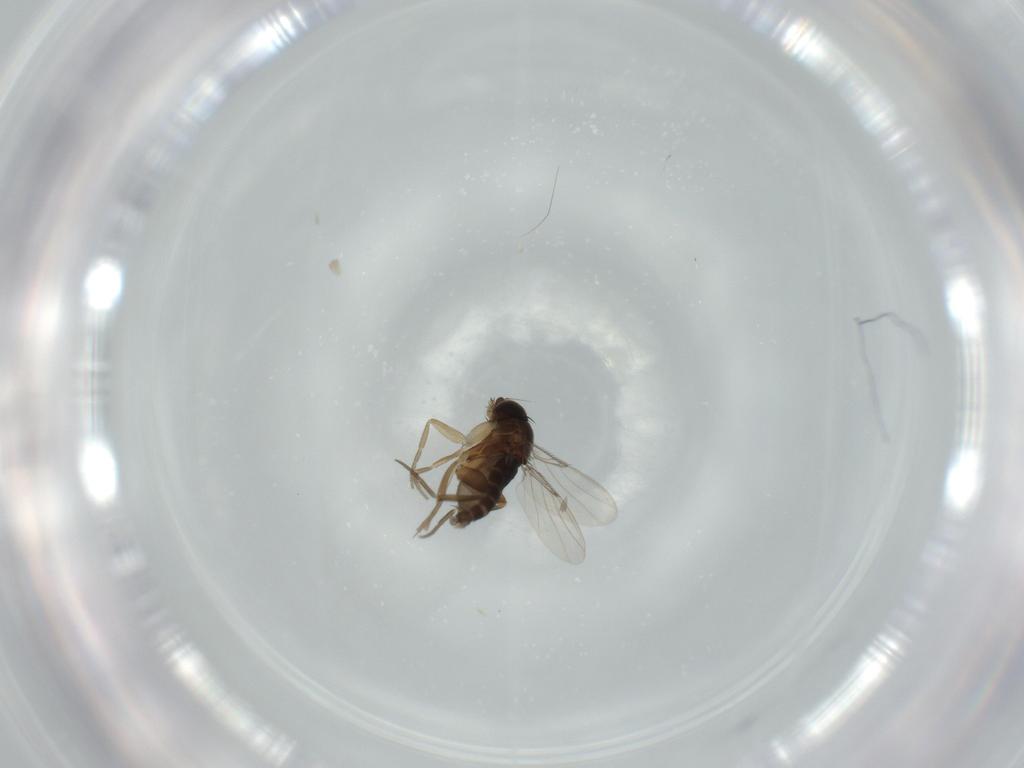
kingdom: Animalia
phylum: Arthropoda
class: Insecta
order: Diptera
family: Phoridae
